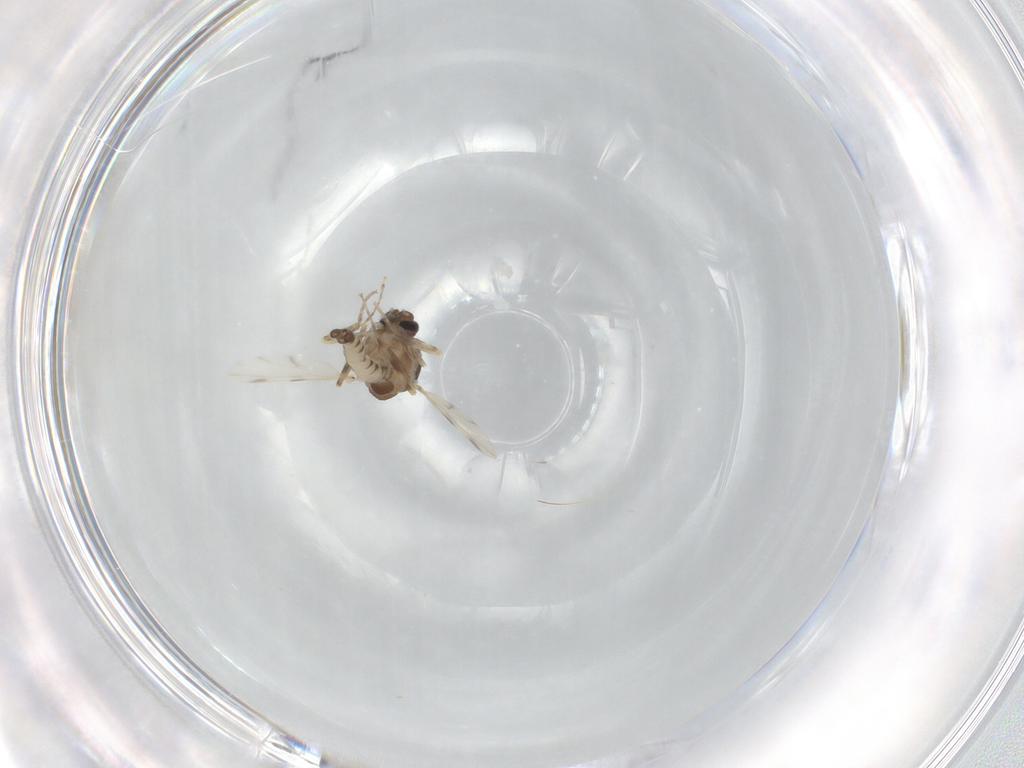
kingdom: Animalia
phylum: Arthropoda
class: Insecta
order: Diptera
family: Ceratopogonidae
